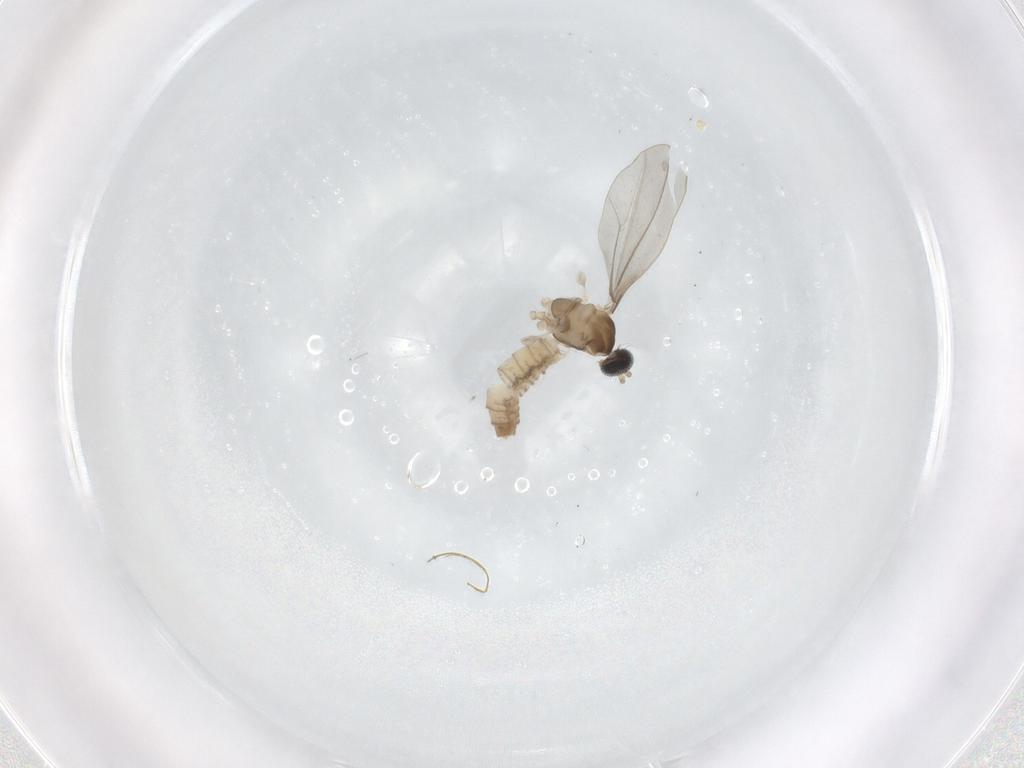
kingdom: Animalia
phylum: Arthropoda
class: Insecta
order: Diptera
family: Cecidomyiidae
